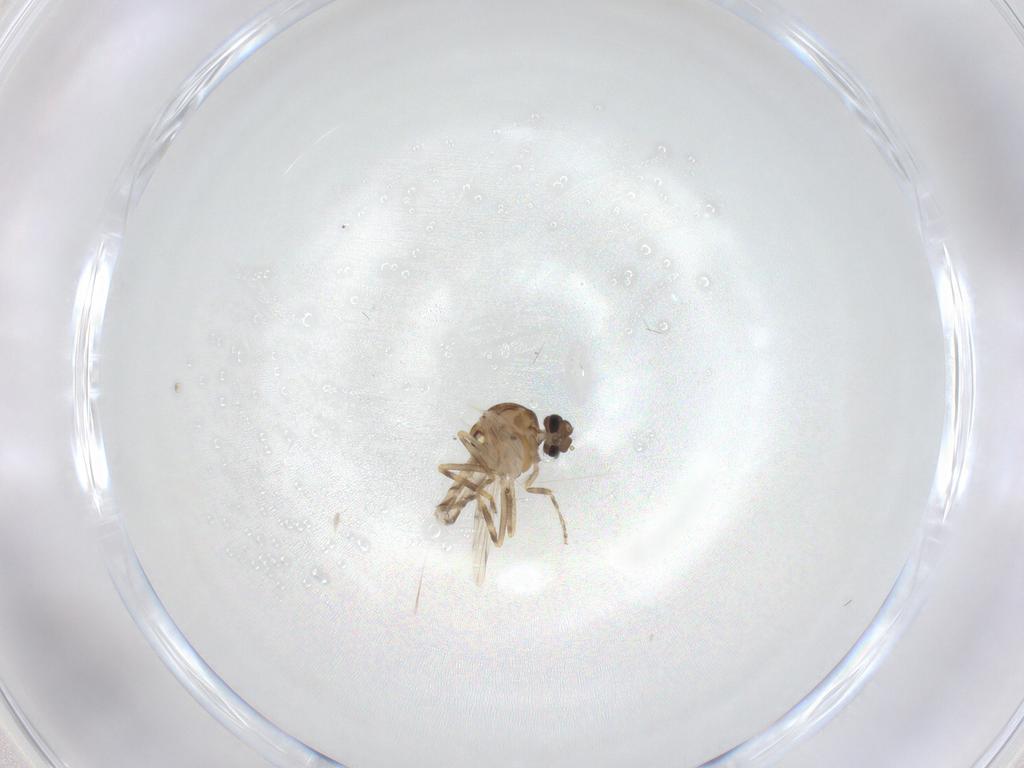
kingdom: Animalia
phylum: Arthropoda
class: Insecta
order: Diptera
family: Ceratopogonidae
